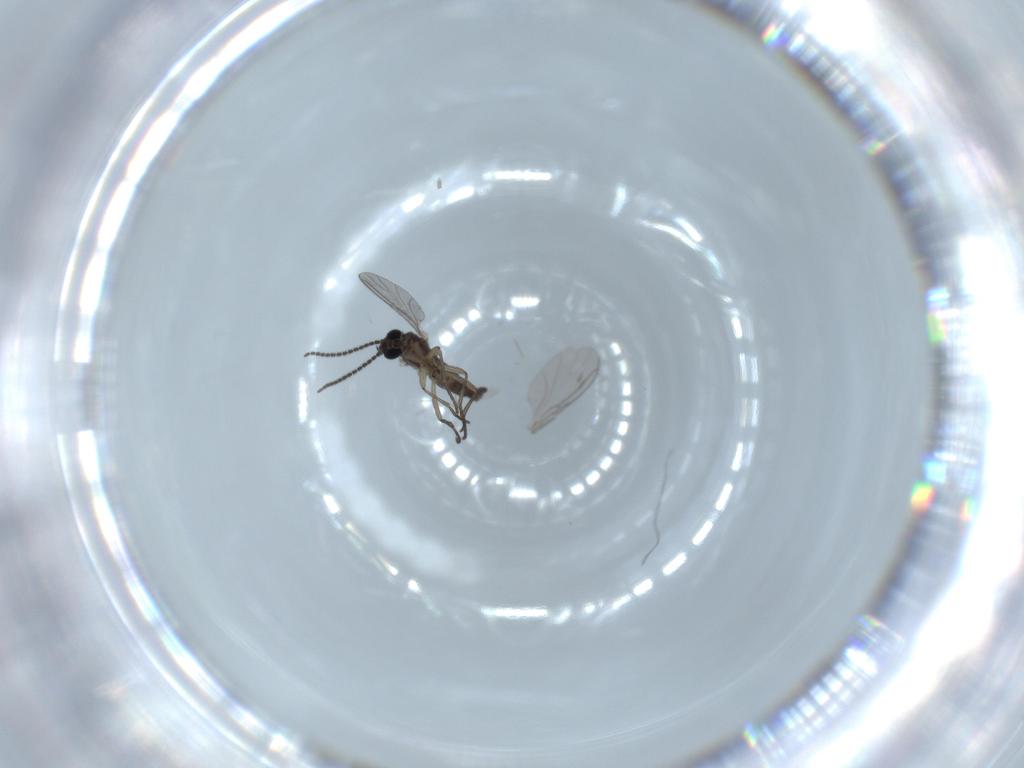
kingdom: Animalia
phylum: Arthropoda
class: Insecta
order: Diptera
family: Sciaridae
